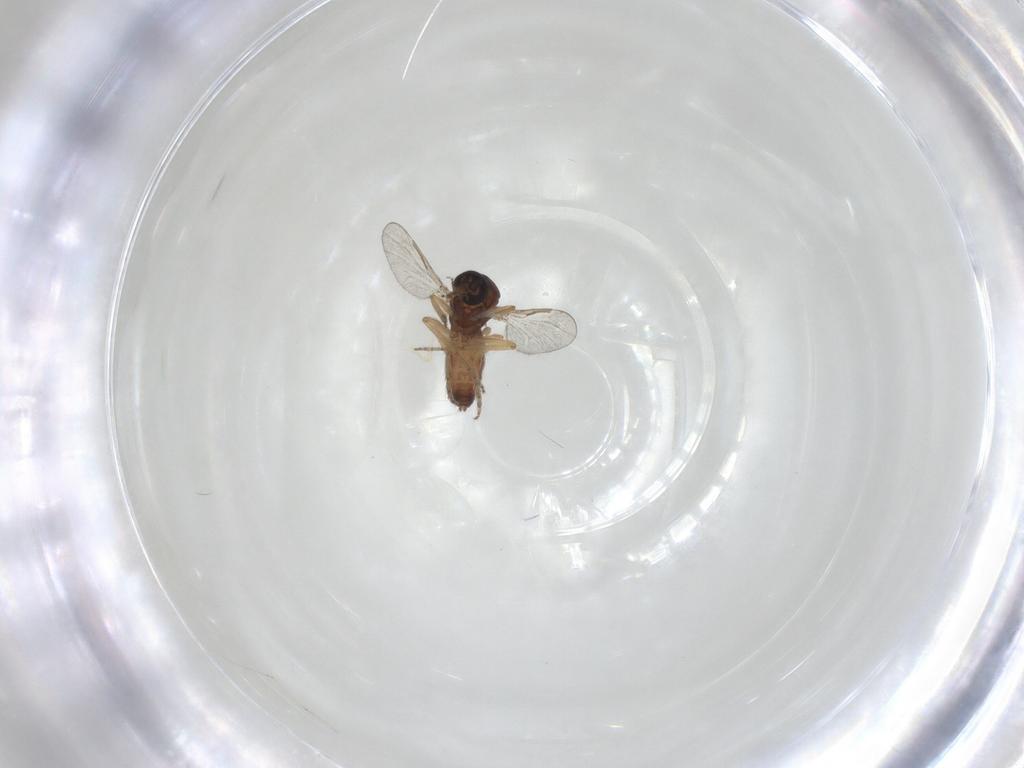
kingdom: Animalia
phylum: Arthropoda
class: Insecta
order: Diptera
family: Ceratopogonidae
